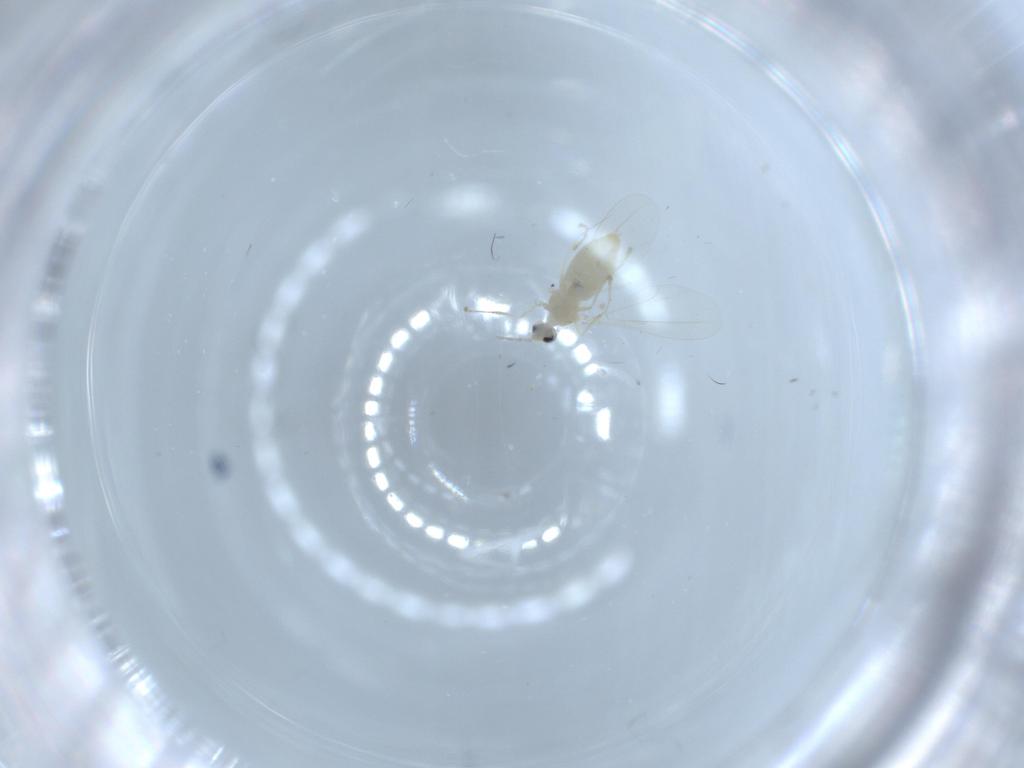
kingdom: Animalia
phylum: Arthropoda
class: Insecta
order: Diptera
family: Cecidomyiidae
